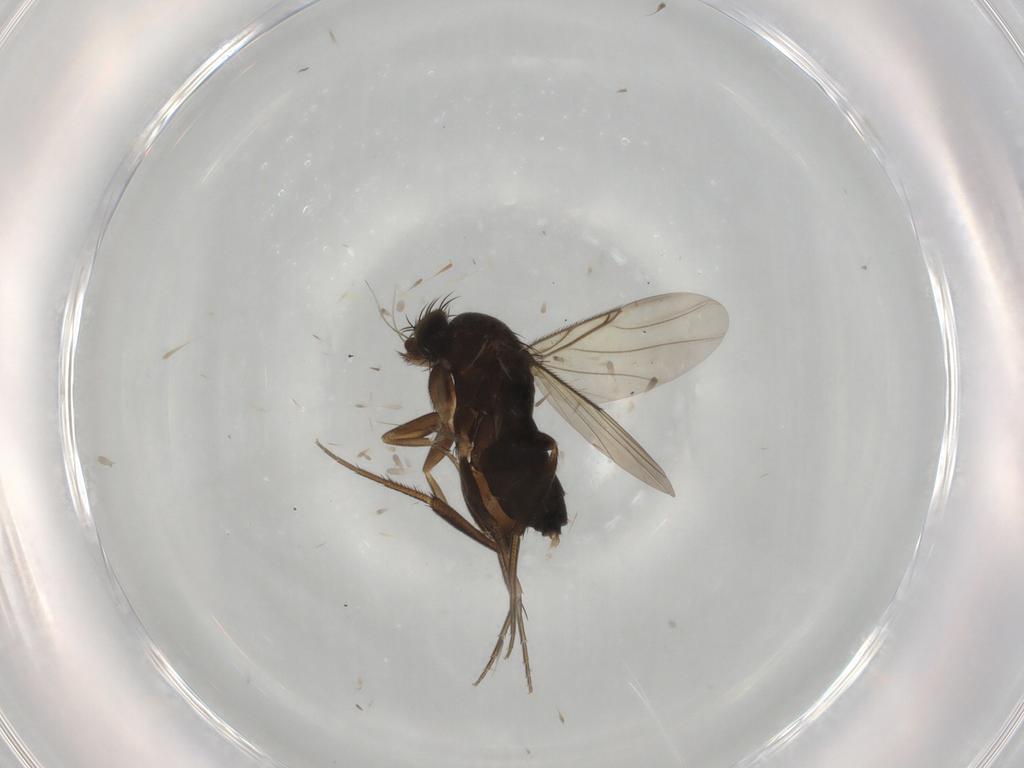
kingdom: Animalia
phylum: Arthropoda
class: Insecta
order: Diptera
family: Phoridae
